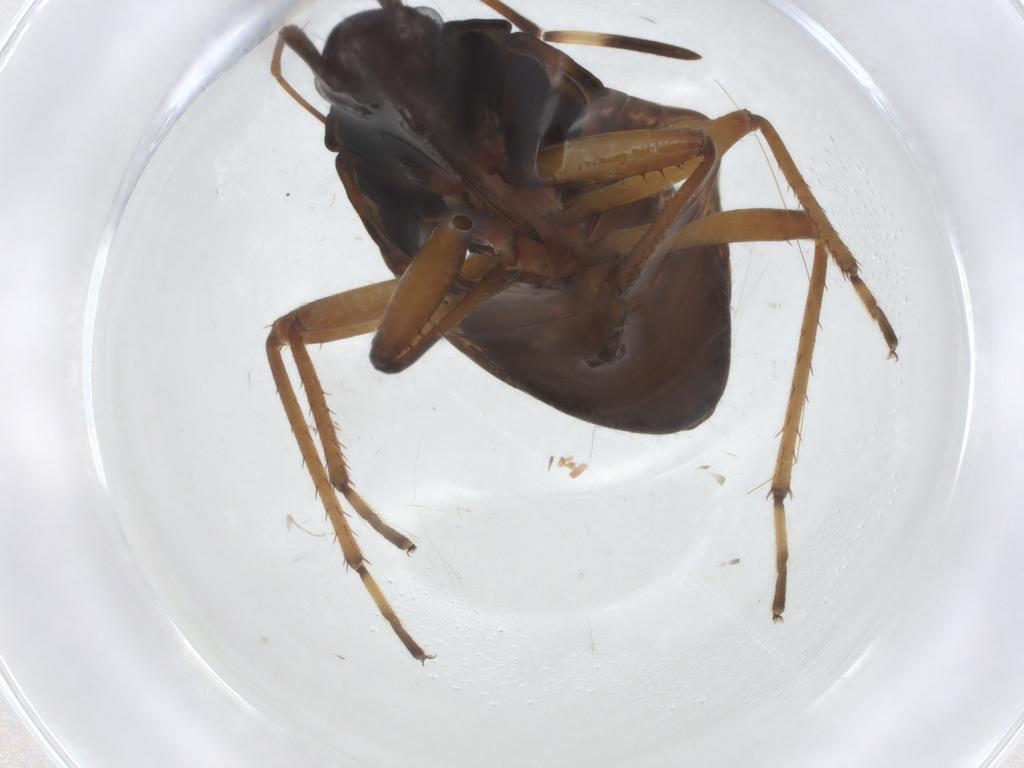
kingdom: Animalia
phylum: Arthropoda
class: Insecta
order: Hemiptera
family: Rhyparochromidae
